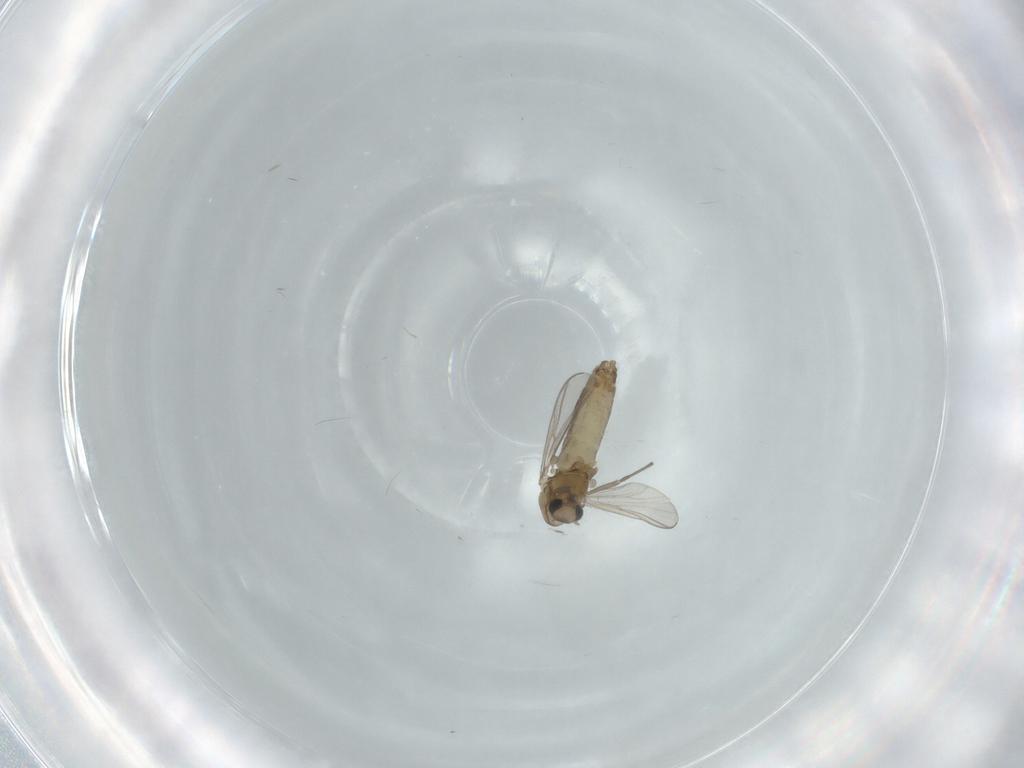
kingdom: Animalia
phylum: Arthropoda
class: Insecta
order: Diptera
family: Chironomidae
